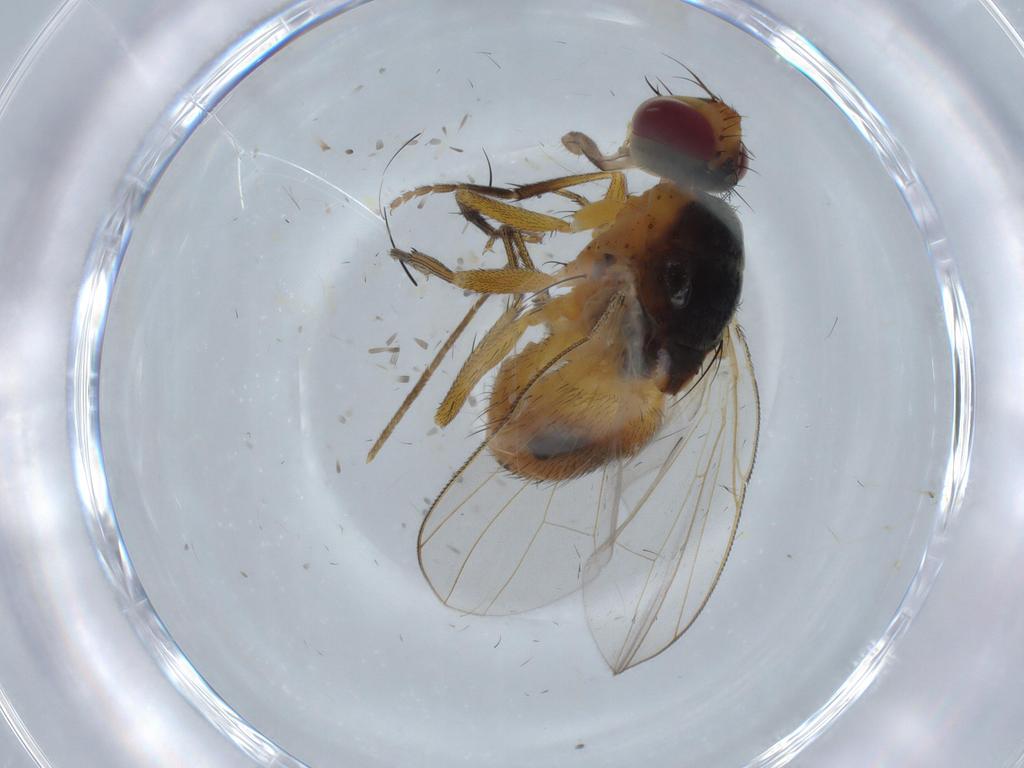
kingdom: Animalia
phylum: Arthropoda
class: Insecta
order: Diptera
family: Muscidae
